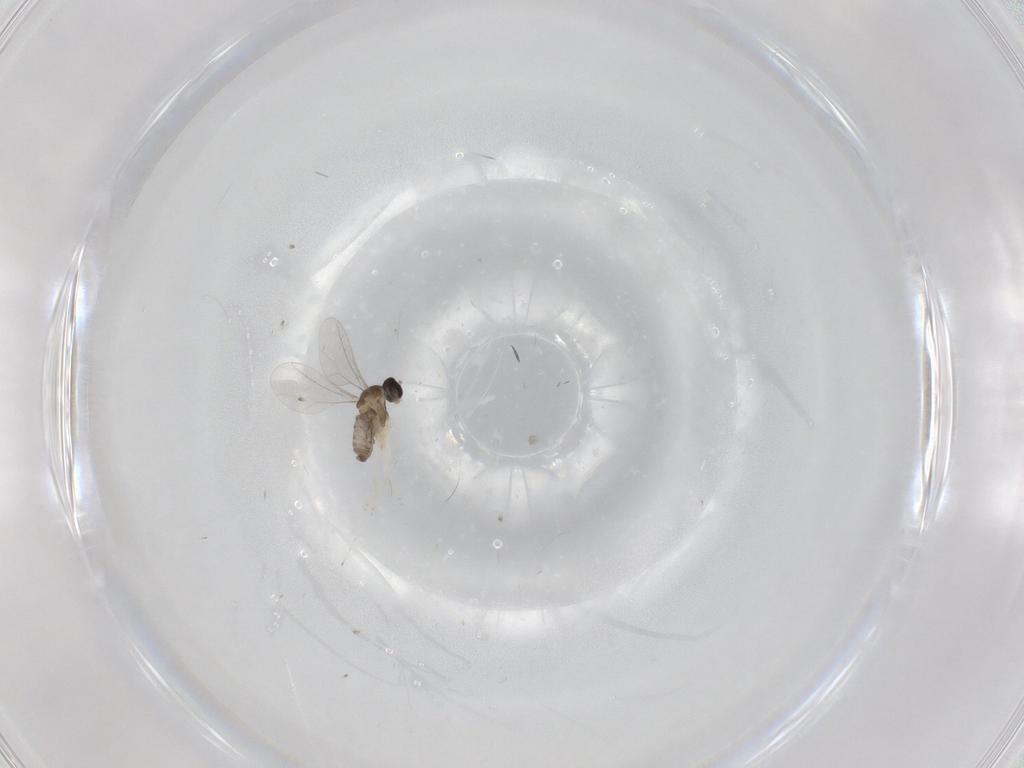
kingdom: Animalia
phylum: Arthropoda
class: Insecta
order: Diptera
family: Cecidomyiidae
